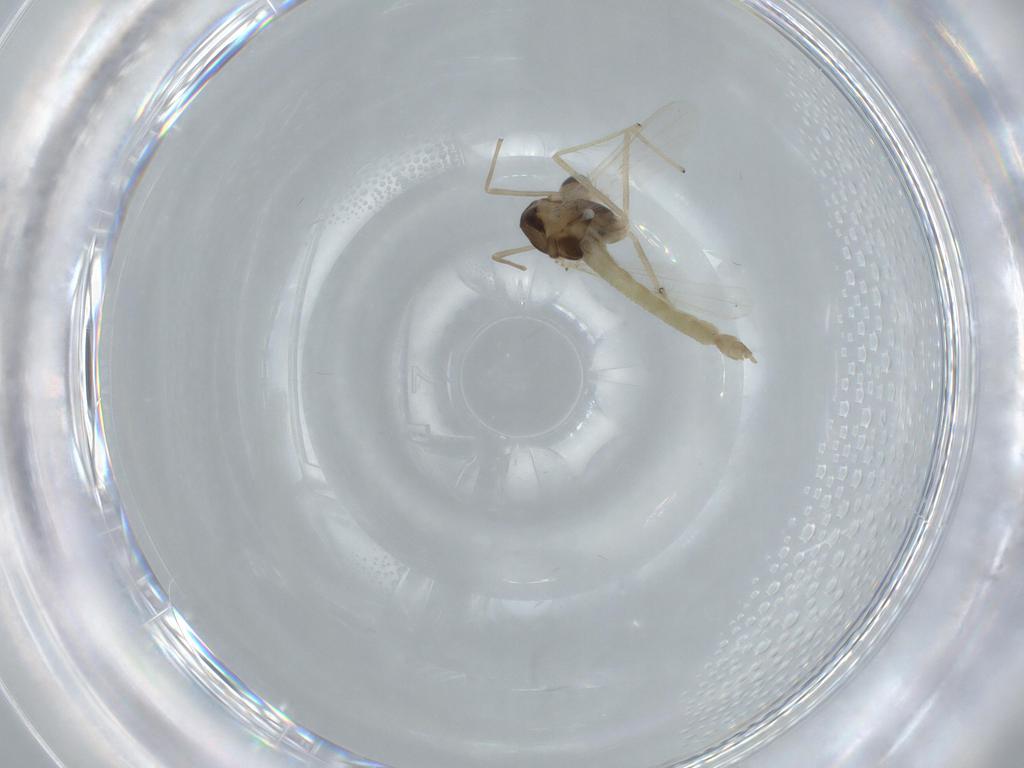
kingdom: Animalia
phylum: Arthropoda
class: Insecta
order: Diptera
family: Chironomidae
